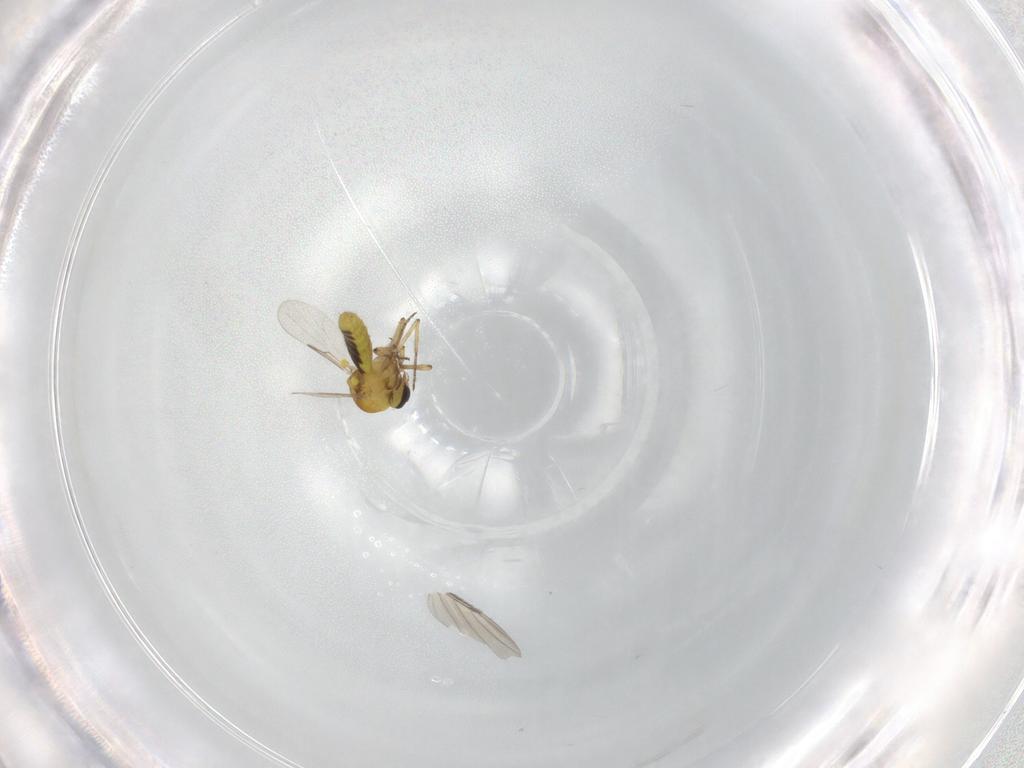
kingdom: Animalia
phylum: Arthropoda
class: Insecta
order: Diptera
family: Ceratopogonidae
